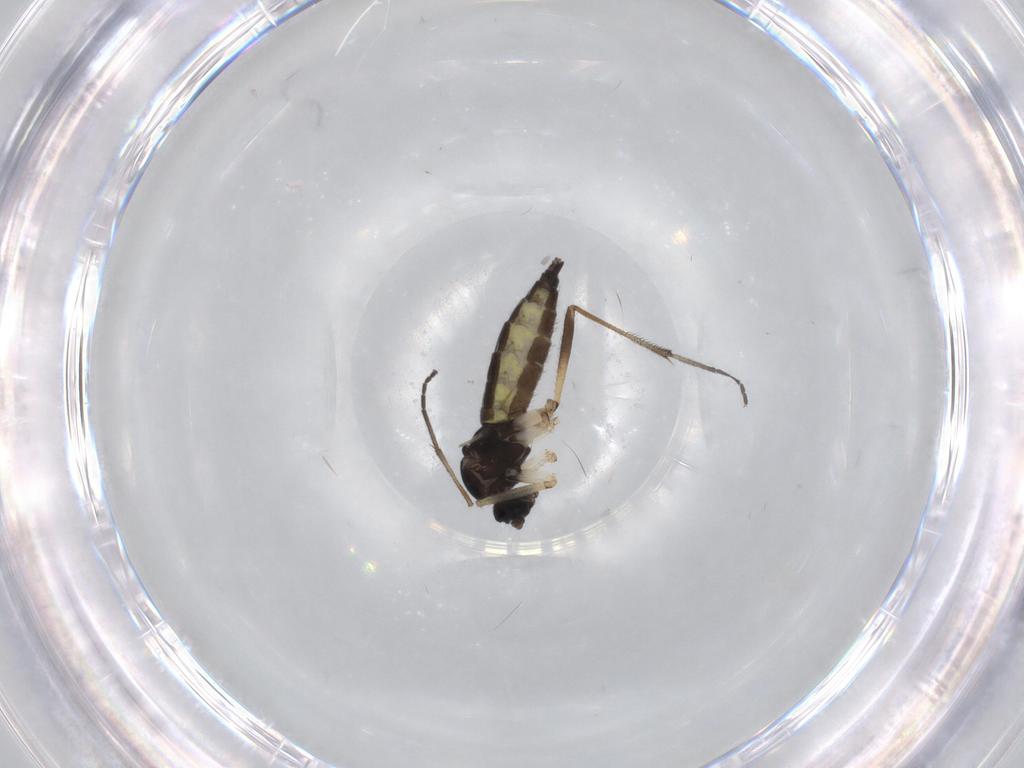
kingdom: Animalia
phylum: Arthropoda
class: Insecta
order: Diptera
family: Sciaridae
